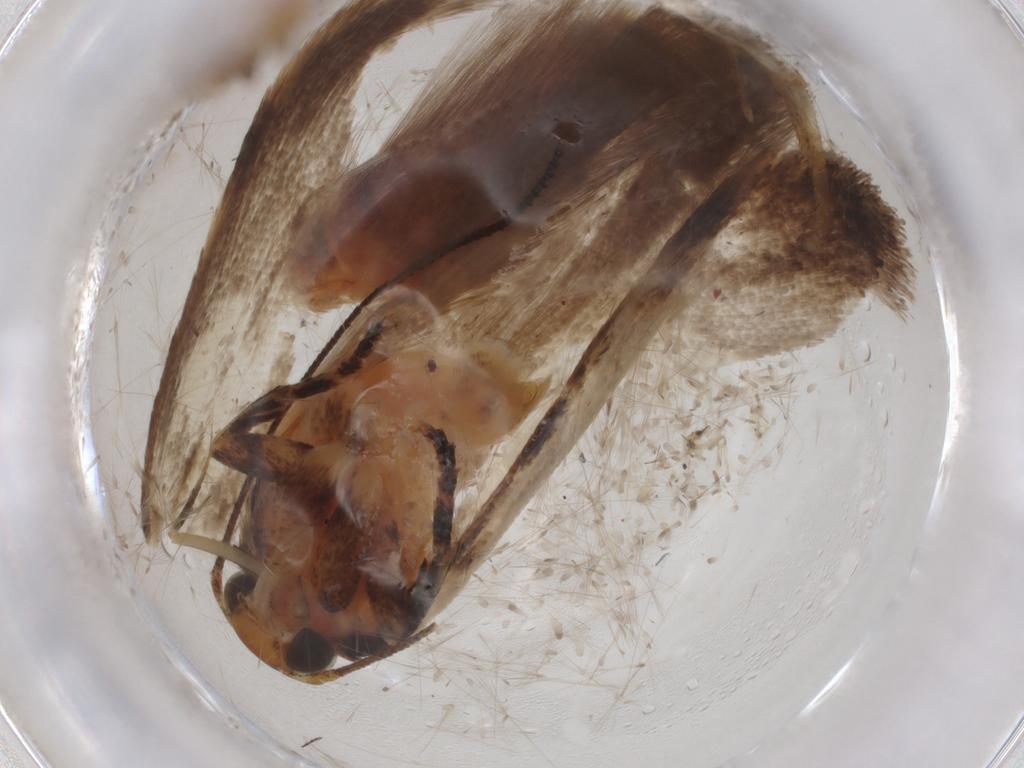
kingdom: Animalia
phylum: Arthropoda
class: Insecta
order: Lepidoptera
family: Gelechiidae
